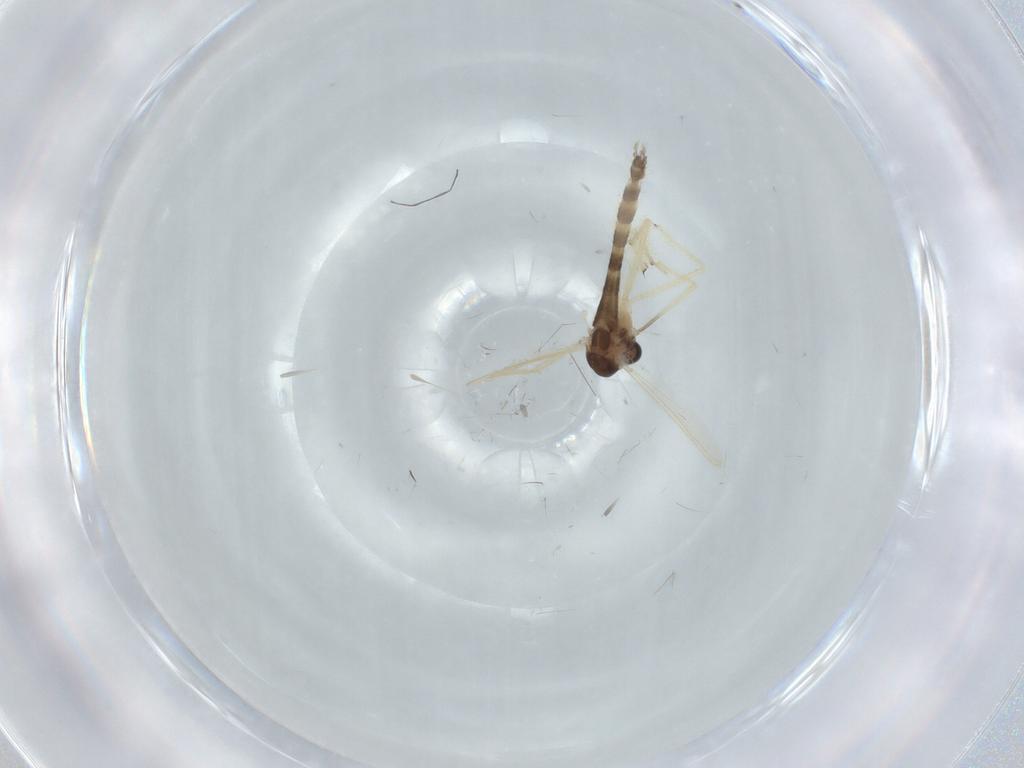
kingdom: Animalia
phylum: Arthropoda
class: Insecta
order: Diptera
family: Chironomidae
